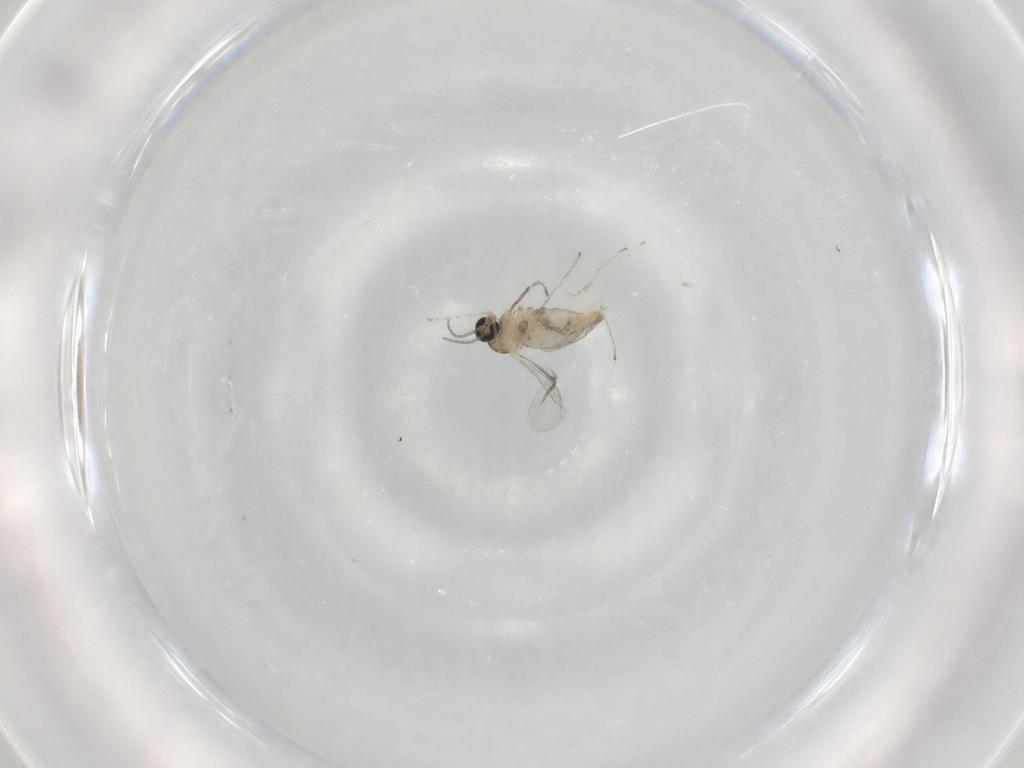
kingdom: Animalia
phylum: Arthropoda
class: Insecta
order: Diptera
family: Cecidomyiidae
